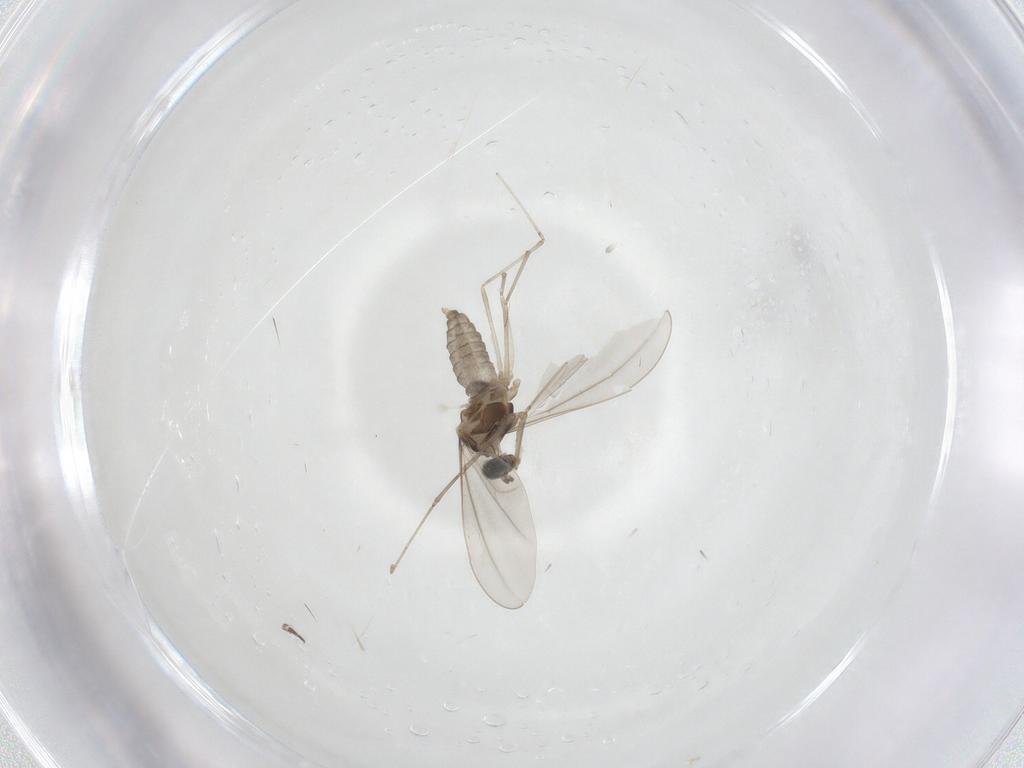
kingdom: Animalia
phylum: Arthropoda
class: Insecta
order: Diptera
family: Cecidomyiidae
